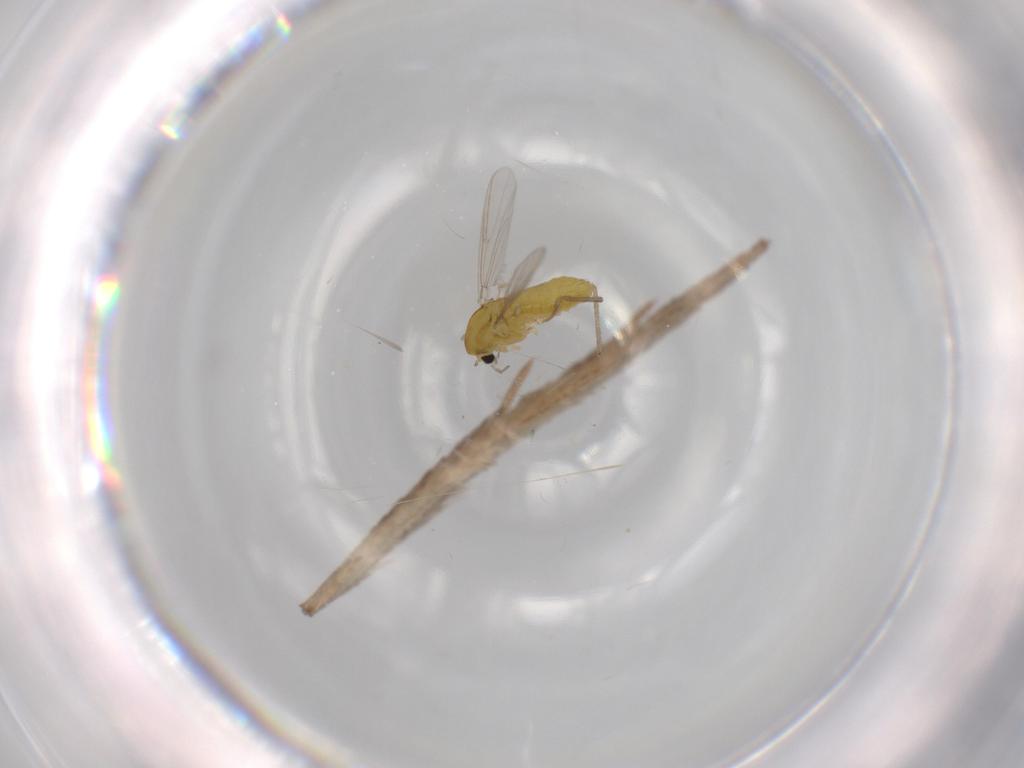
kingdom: Animalia
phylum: Arthropoda
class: Insecta
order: Diptera
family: Chironomidae
